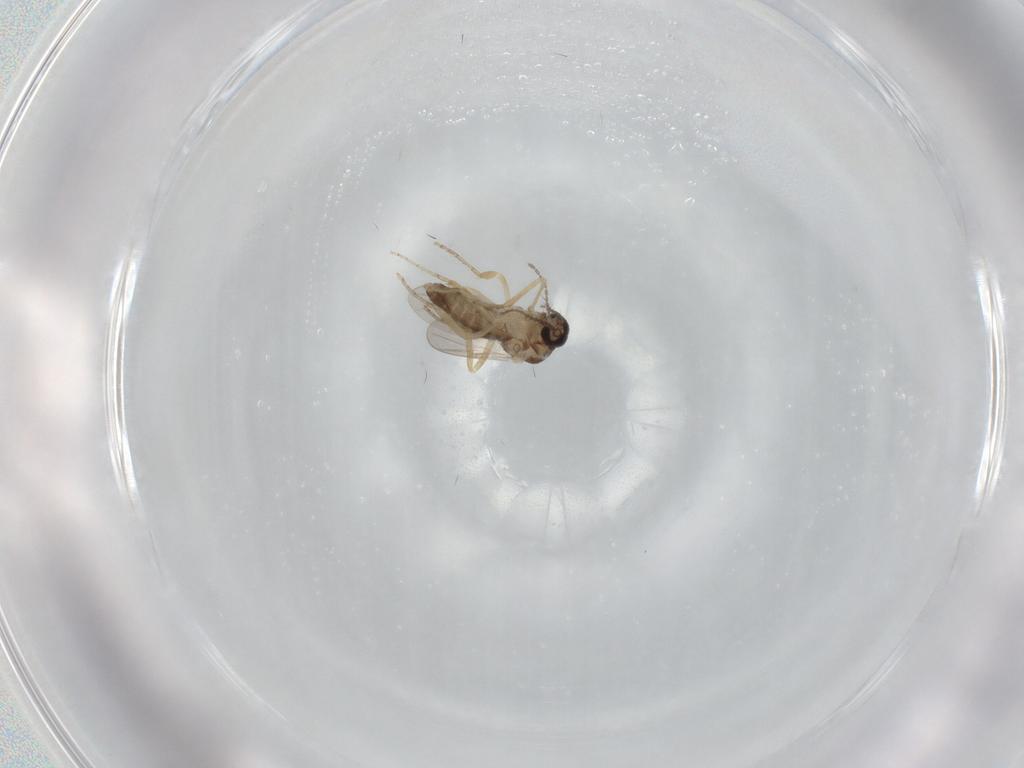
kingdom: Animalia
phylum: Arthropoda
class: Insecta
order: Diptera
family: Ceratopogonidae
